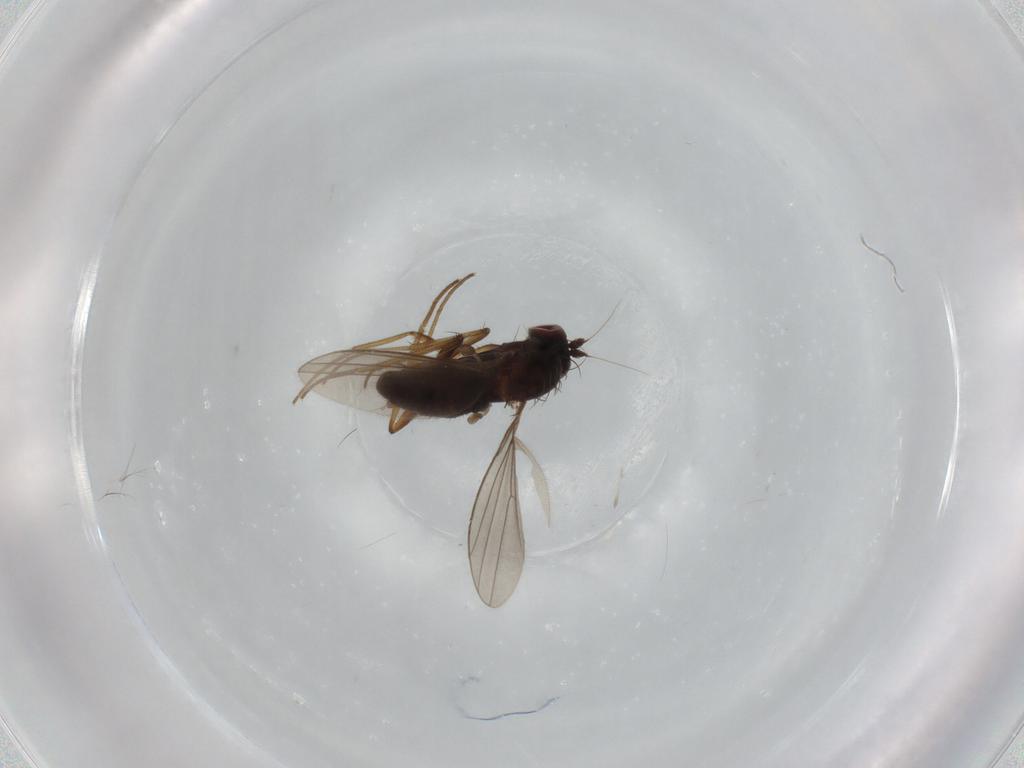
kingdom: Animalia
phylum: Arthropoda
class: Insecta
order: Diptera
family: Dolichopodidae
